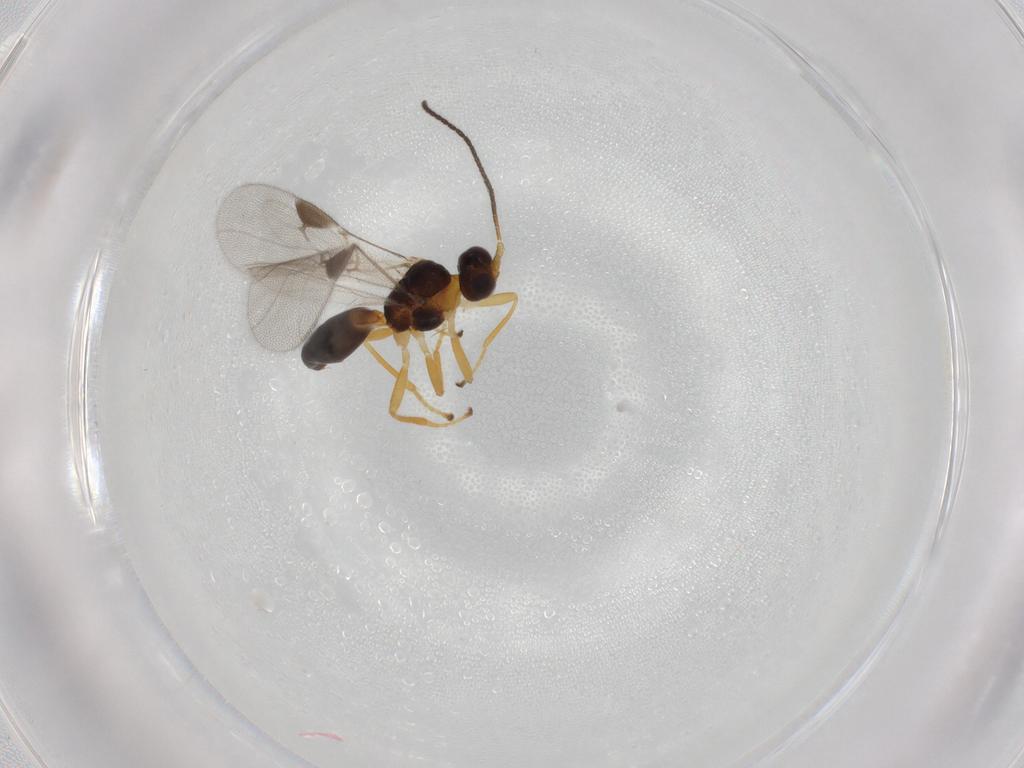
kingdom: Animalia
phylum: Arthropoda
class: Insecta
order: Hymenoptera
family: Braconidae
